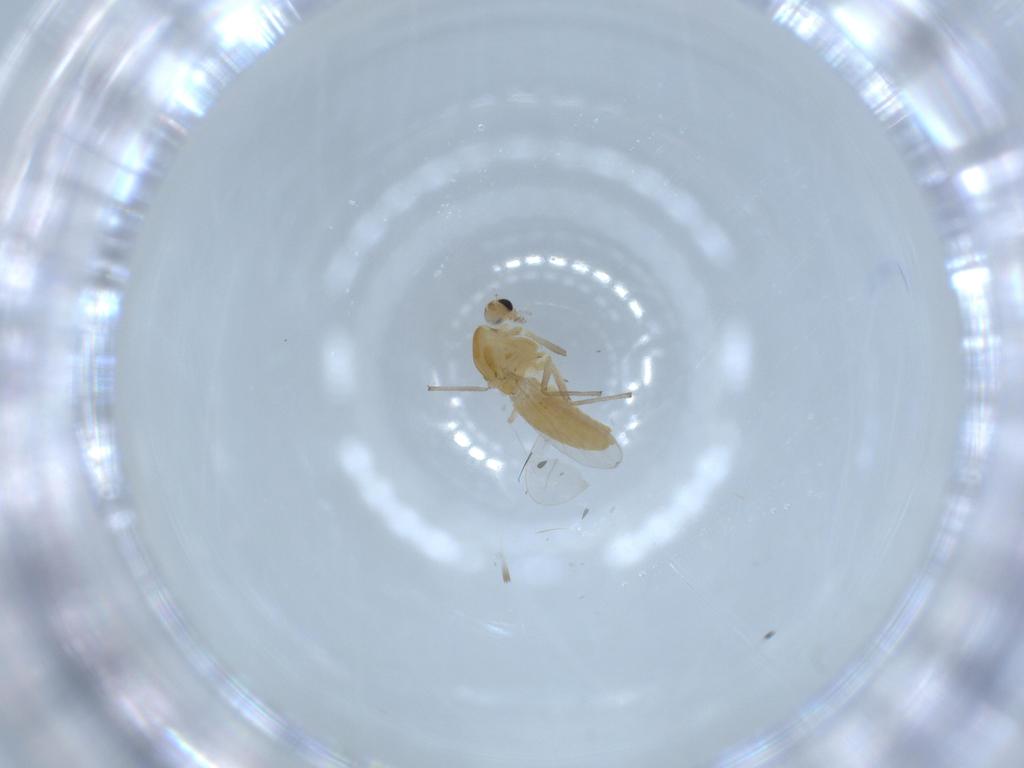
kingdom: Animalia
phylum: Arthropoda
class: Insecta
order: Diptera
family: Chironomidae
